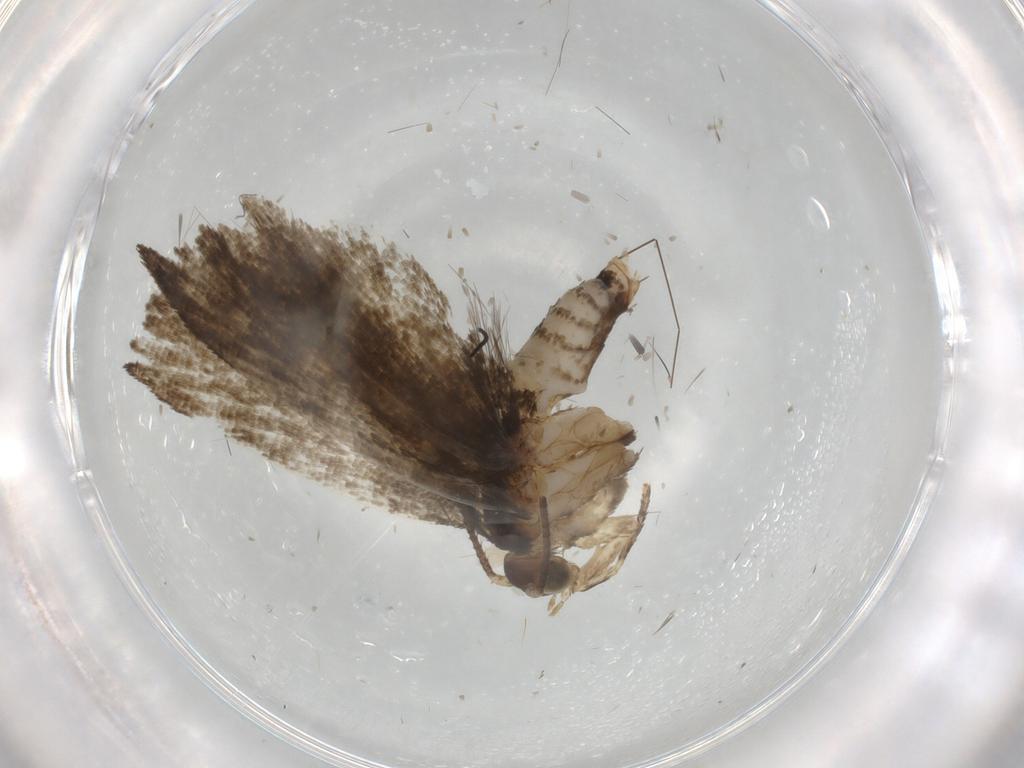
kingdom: Animalia
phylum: Arthropoda
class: Insecta
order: Lepidoptera
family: Tortricidae
